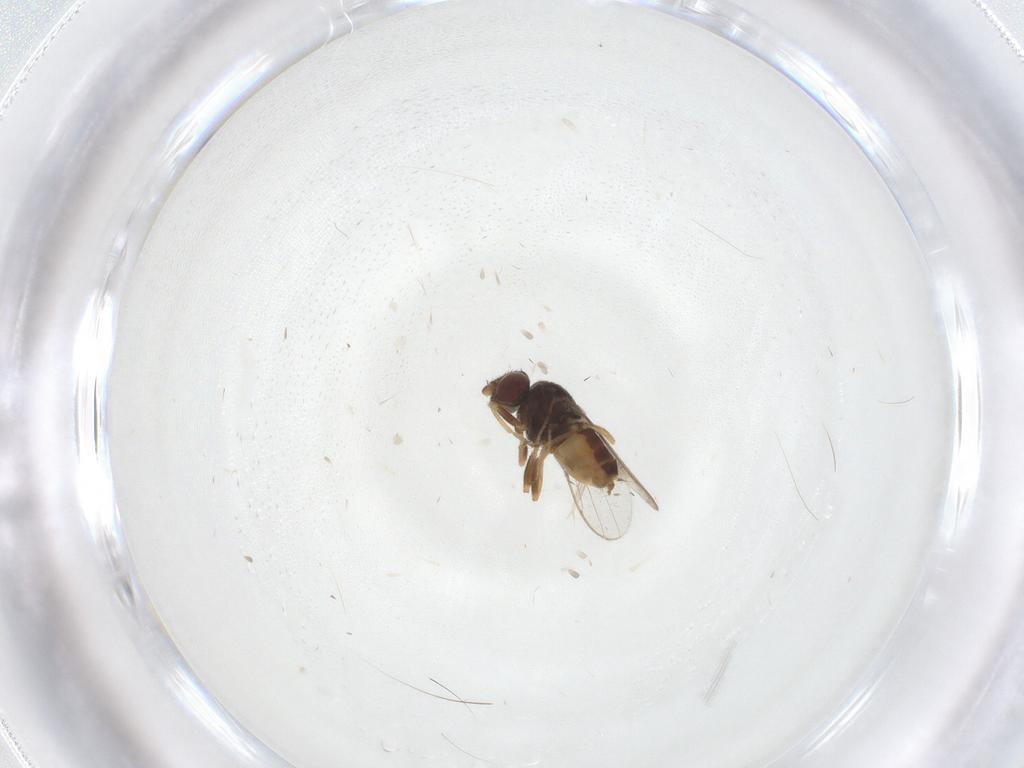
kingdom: Animalia
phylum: Arthropoda
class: Insecta
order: Diptera
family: Chloropidae
